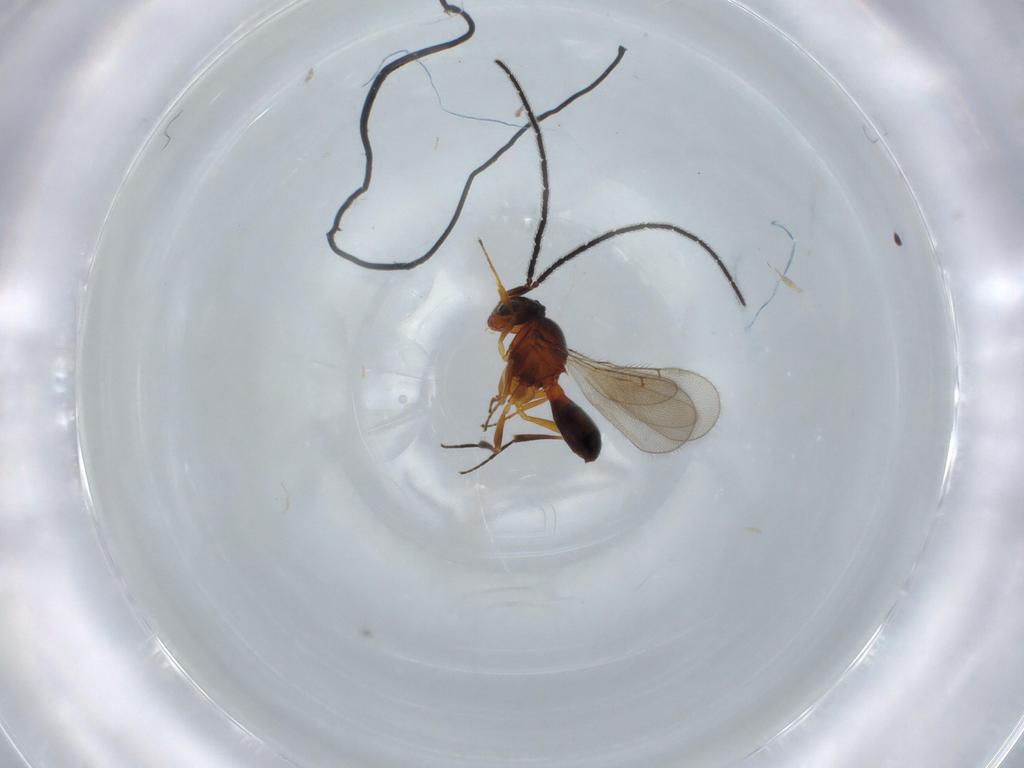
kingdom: Animalia
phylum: Arthropoda
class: Insecta
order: Hymenoptera
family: Scelionidae
